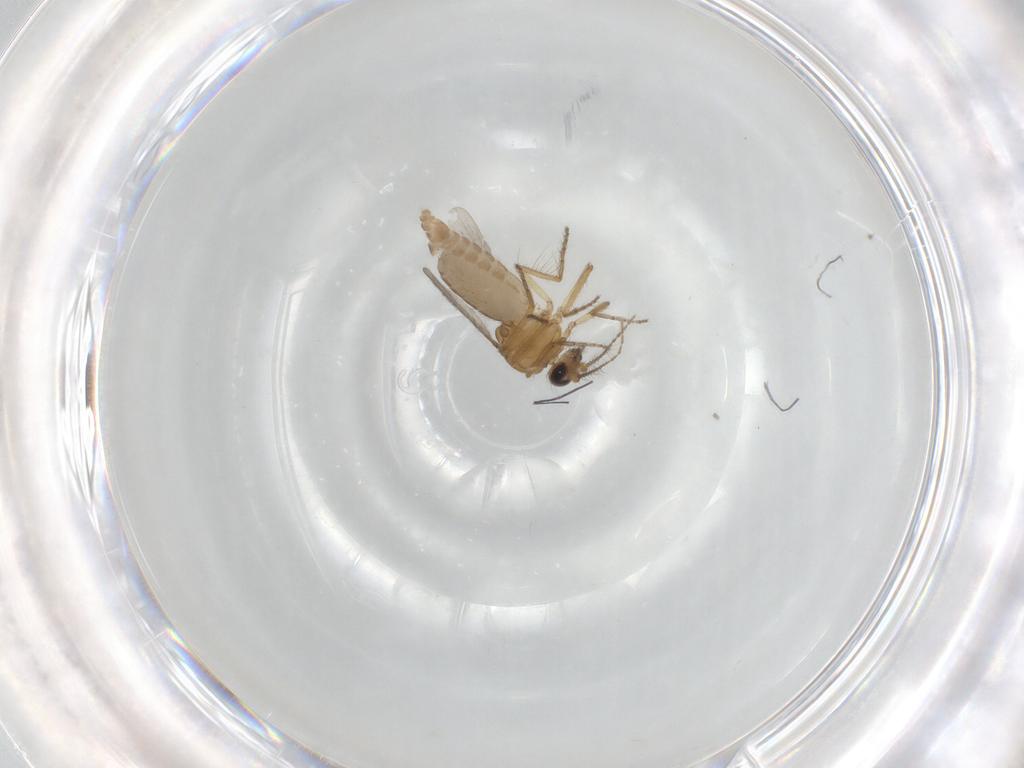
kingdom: Animalia
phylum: Arthropoda
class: Insecta
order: Diptera
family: Ceratopogonidae
